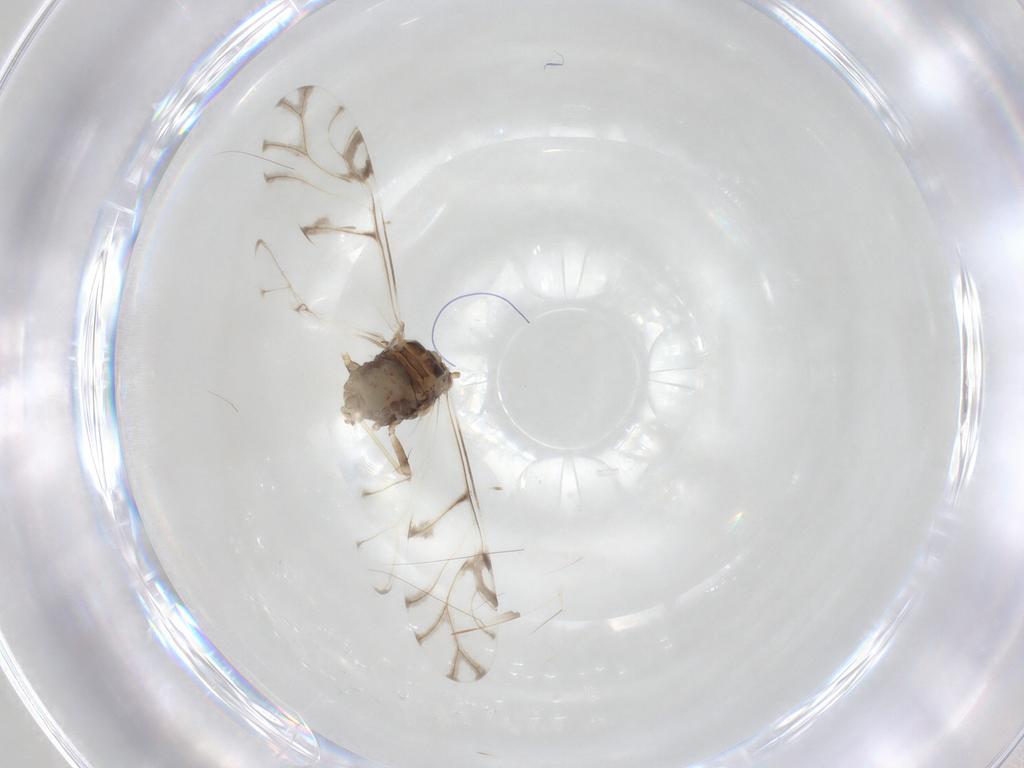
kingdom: Animalia
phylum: Arthropoda
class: Insecta
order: Hemiptera
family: Aphididae
